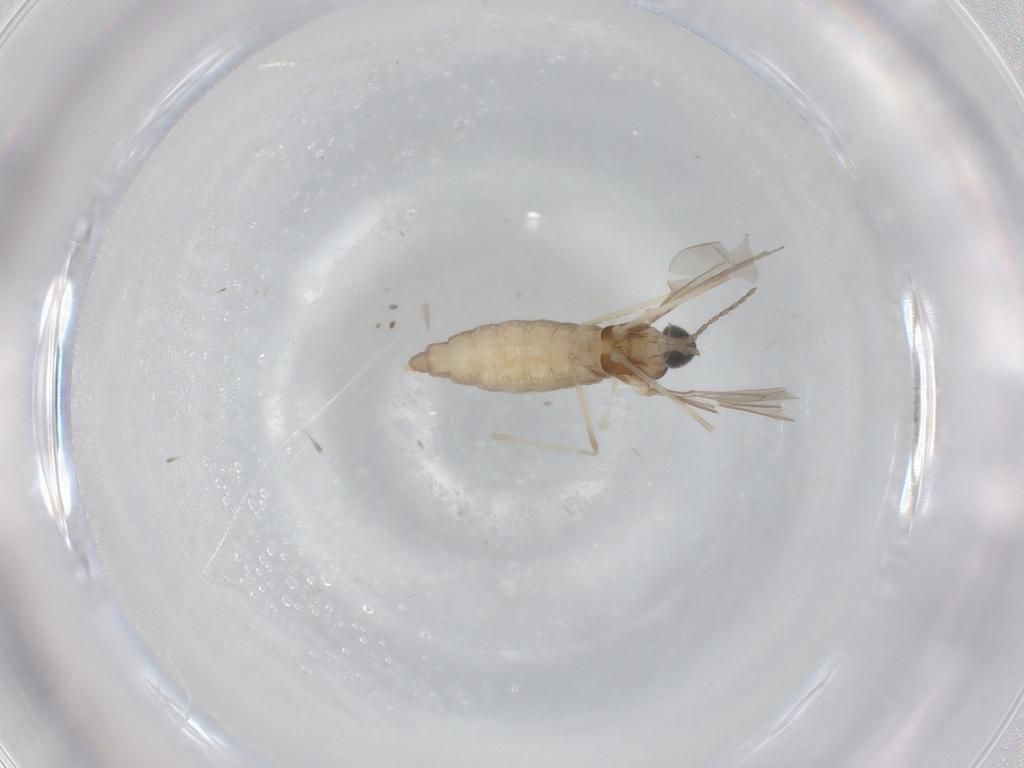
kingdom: Animalia
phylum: Arthropoda
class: Insecta
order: Diptera
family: Cecidomyiidae
